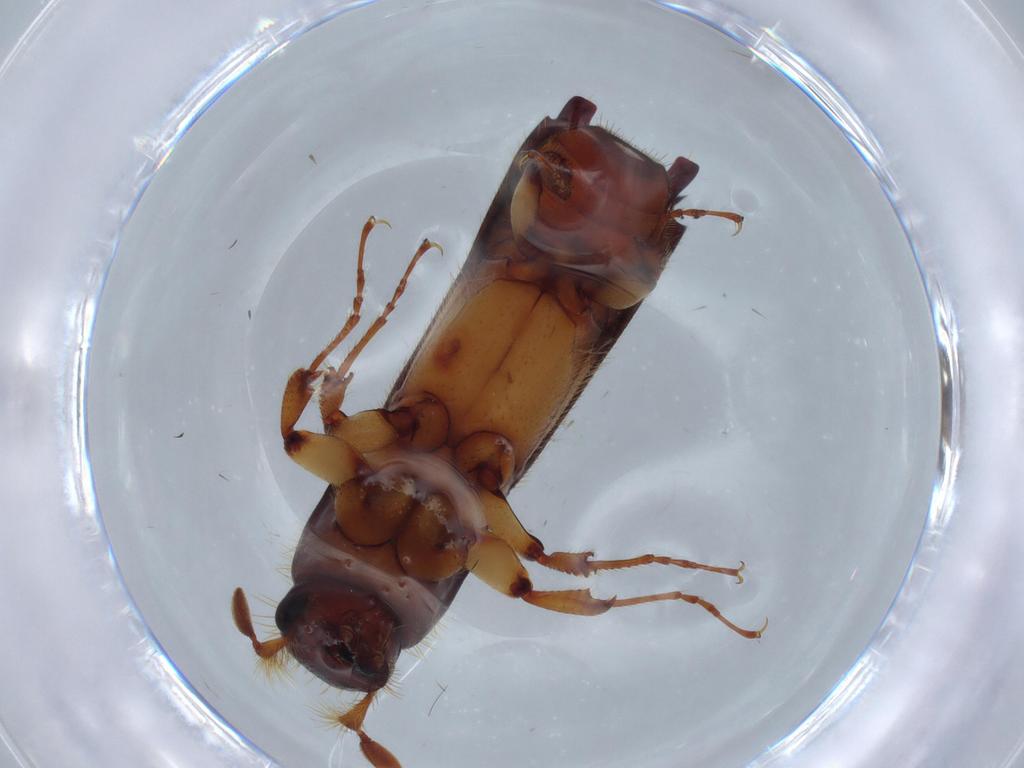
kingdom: Animalia
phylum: Arthropoda
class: Insecta
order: Coleoptera
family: Curculionidae
